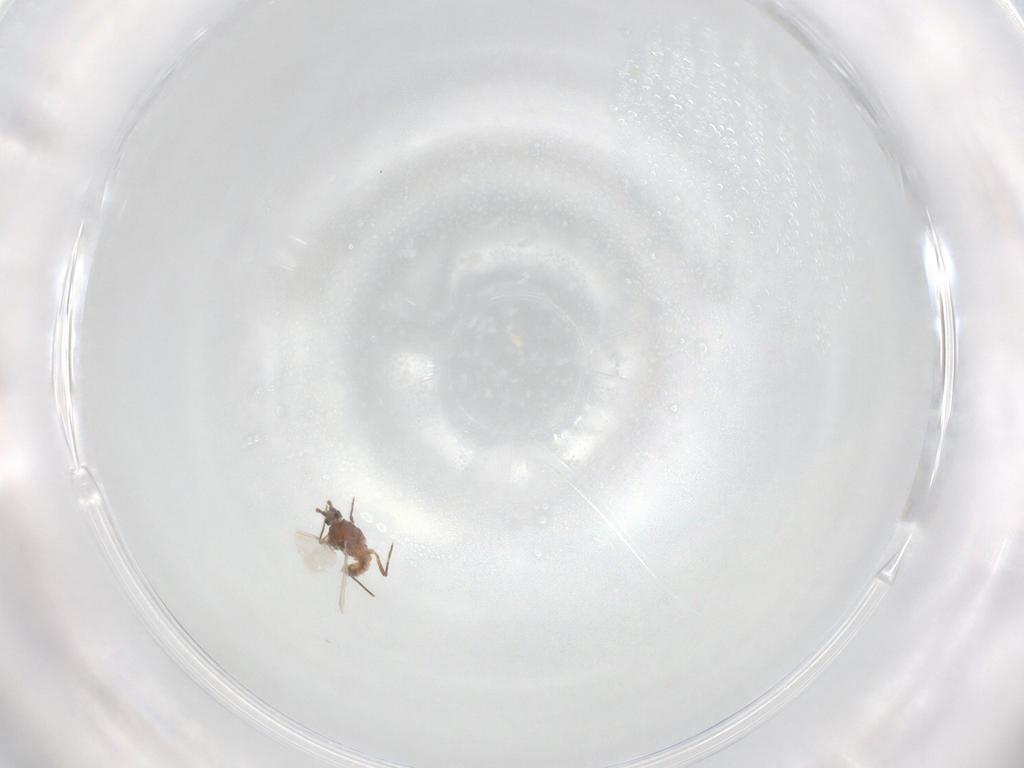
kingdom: Animalia
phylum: Arthropoda
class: Insecta
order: Hemiptera
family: Pseudococcidae
